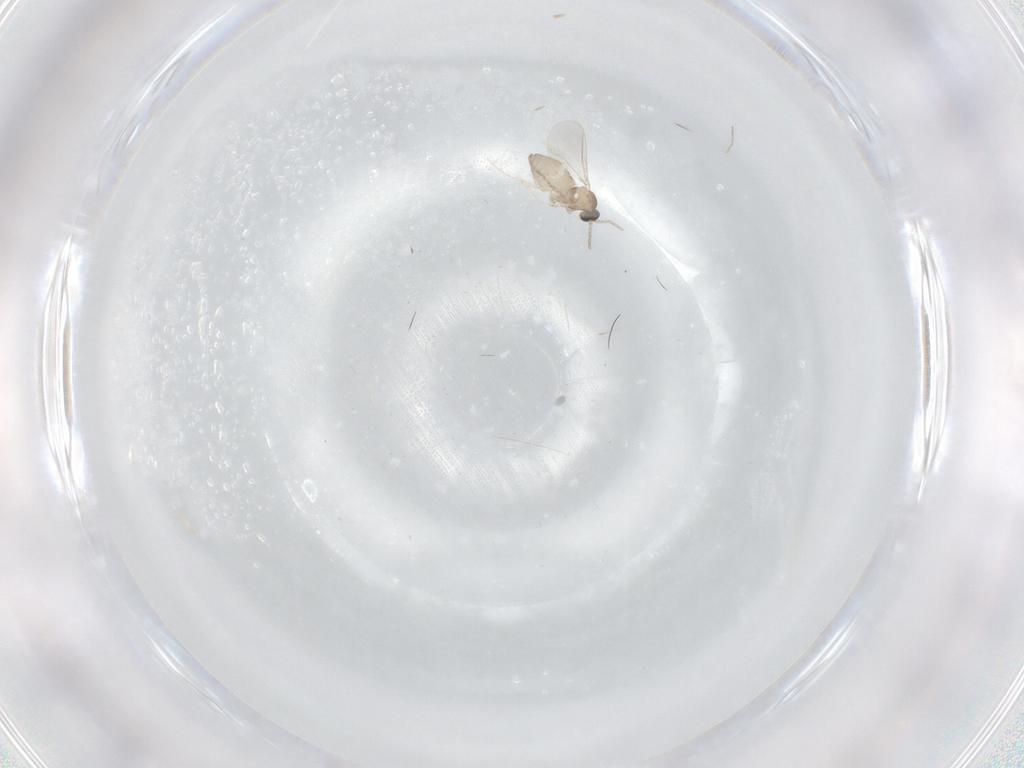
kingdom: Animalia
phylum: Arthropoda
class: Insecta
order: Diptera
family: Cecidomyiidae
